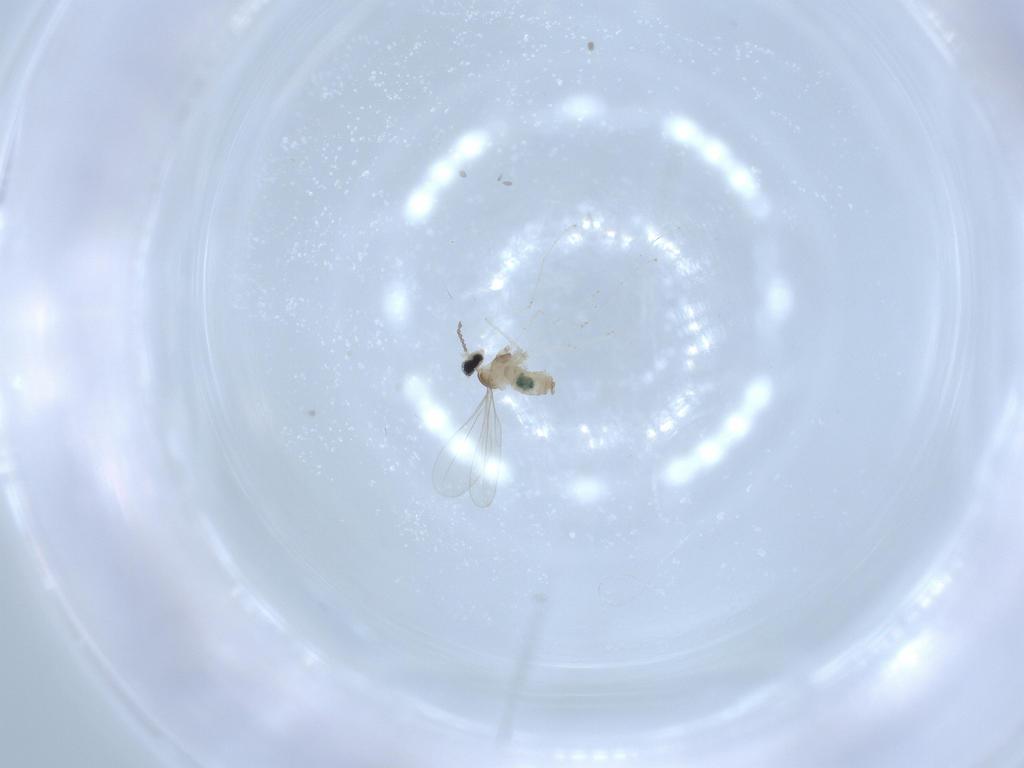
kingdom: Animalia
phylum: Arthropoda
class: Insecta
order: Diptera
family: Cecidomyiidae
